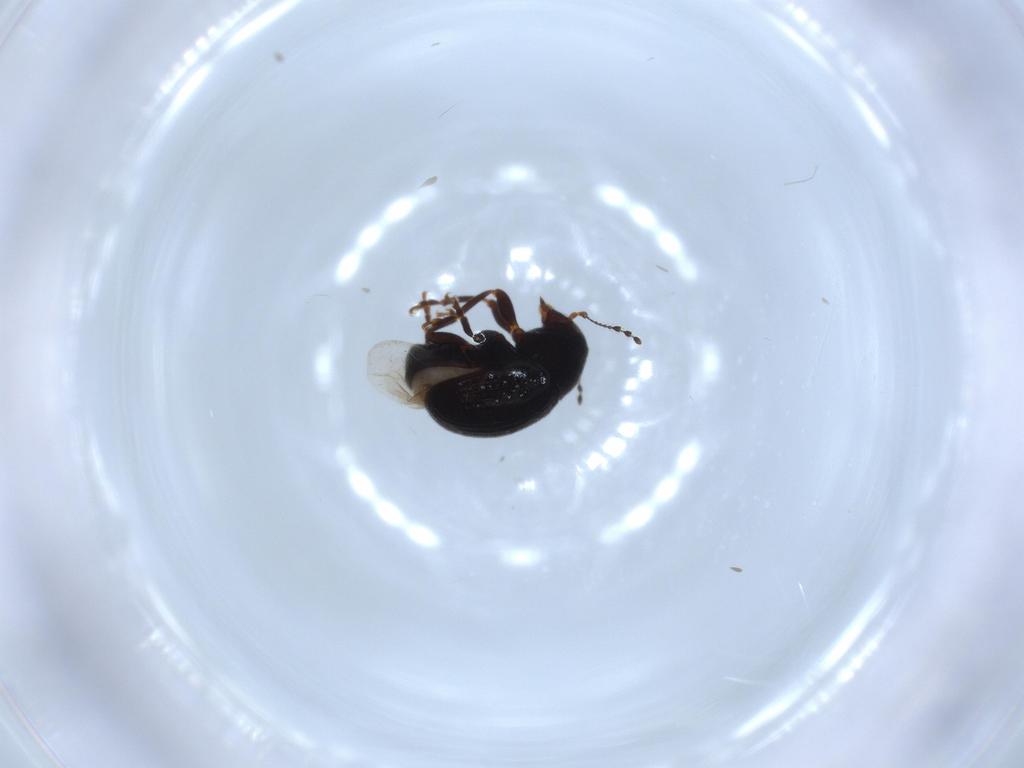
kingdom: Animalia
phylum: Arthropoda
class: Insecta
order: Coleoptera
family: Anthribidae
